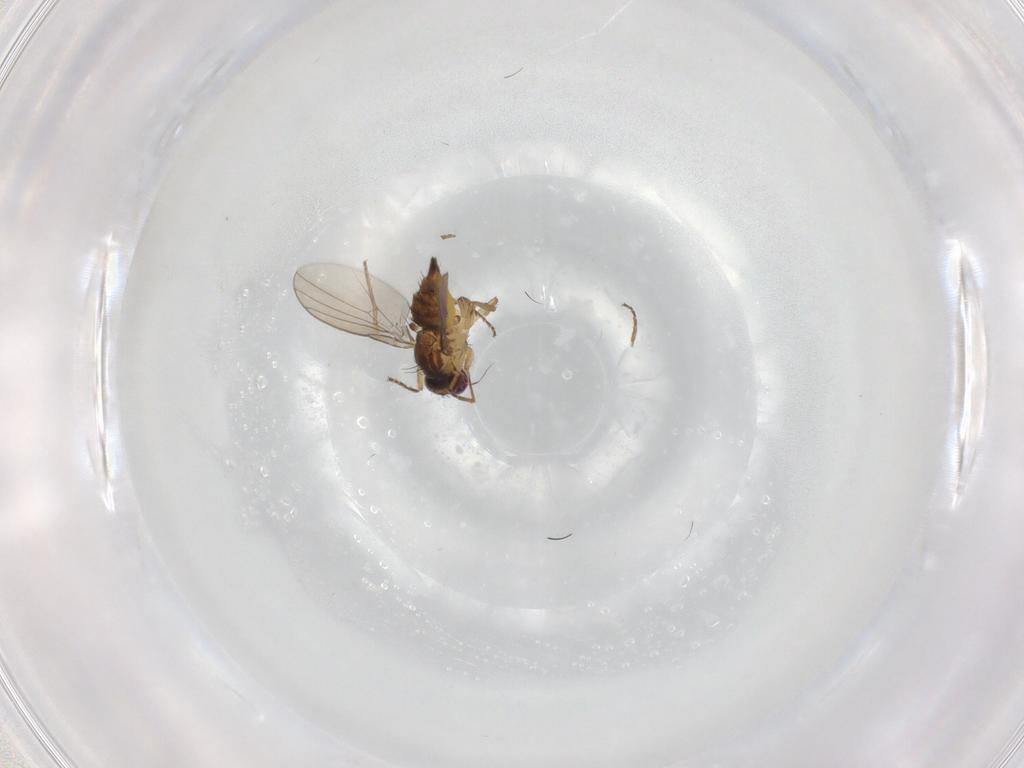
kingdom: Animalia
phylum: Arthropoda
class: Insecta
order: Diptera
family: Agromyzidae
